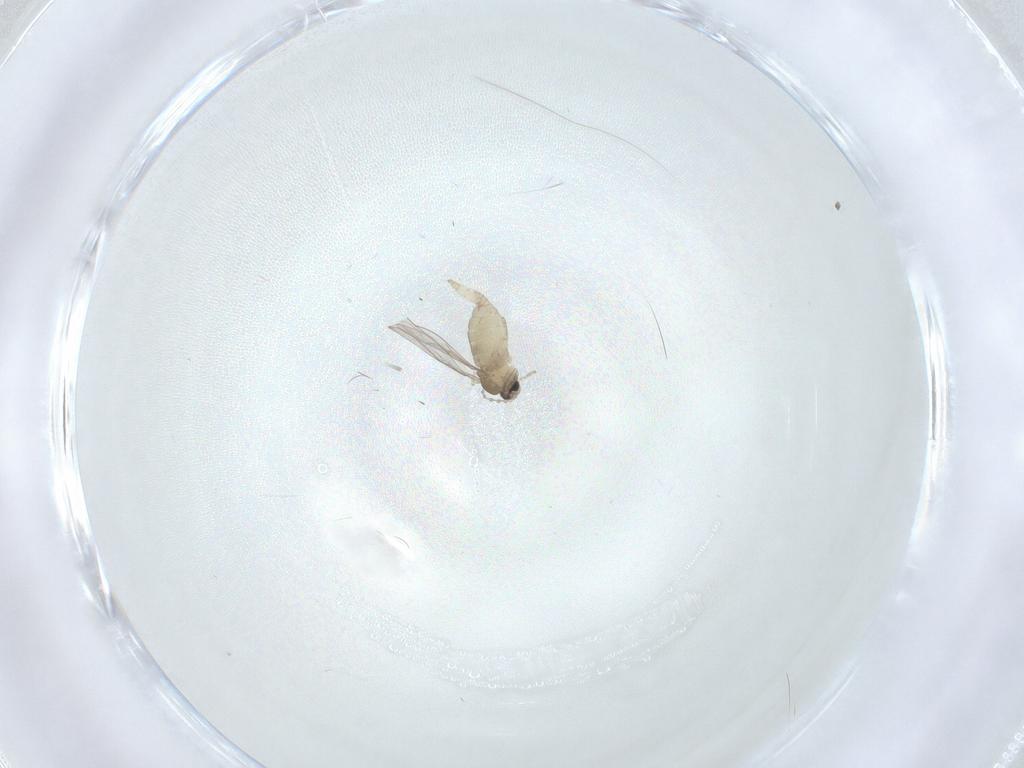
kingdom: Animalia
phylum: Arthropoda
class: Insecta
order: Diptera
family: Cecidomyiidae
